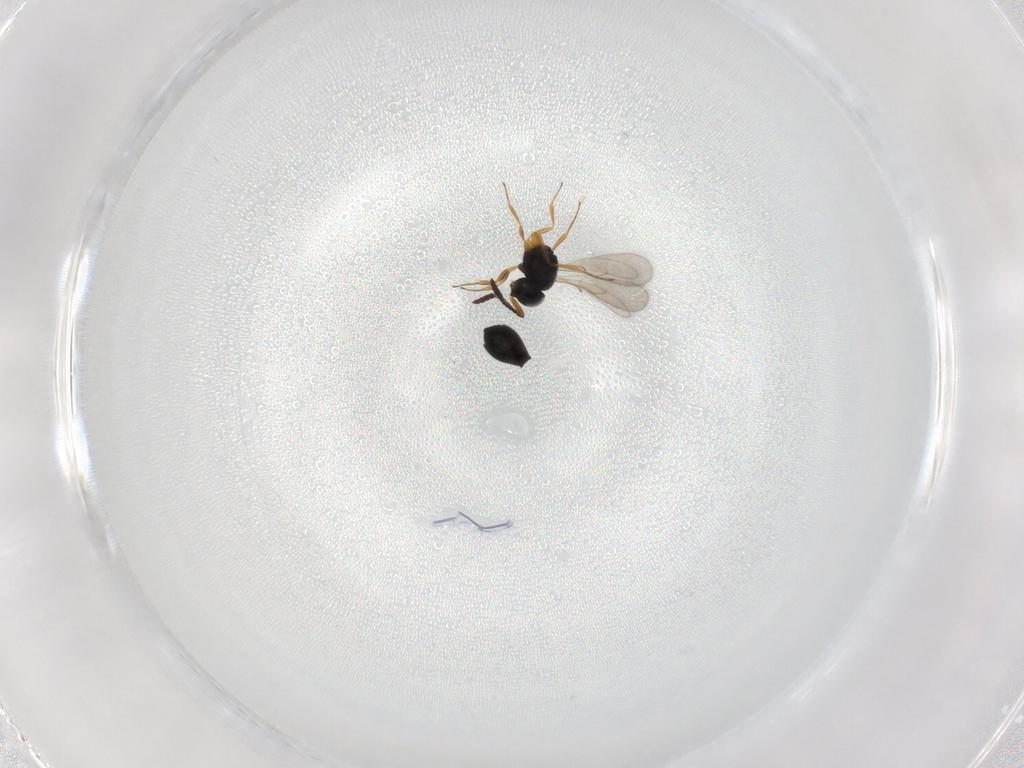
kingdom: Animalia
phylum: Arthropoda
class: Insecta
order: Hymenoptera
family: Scelionidae
